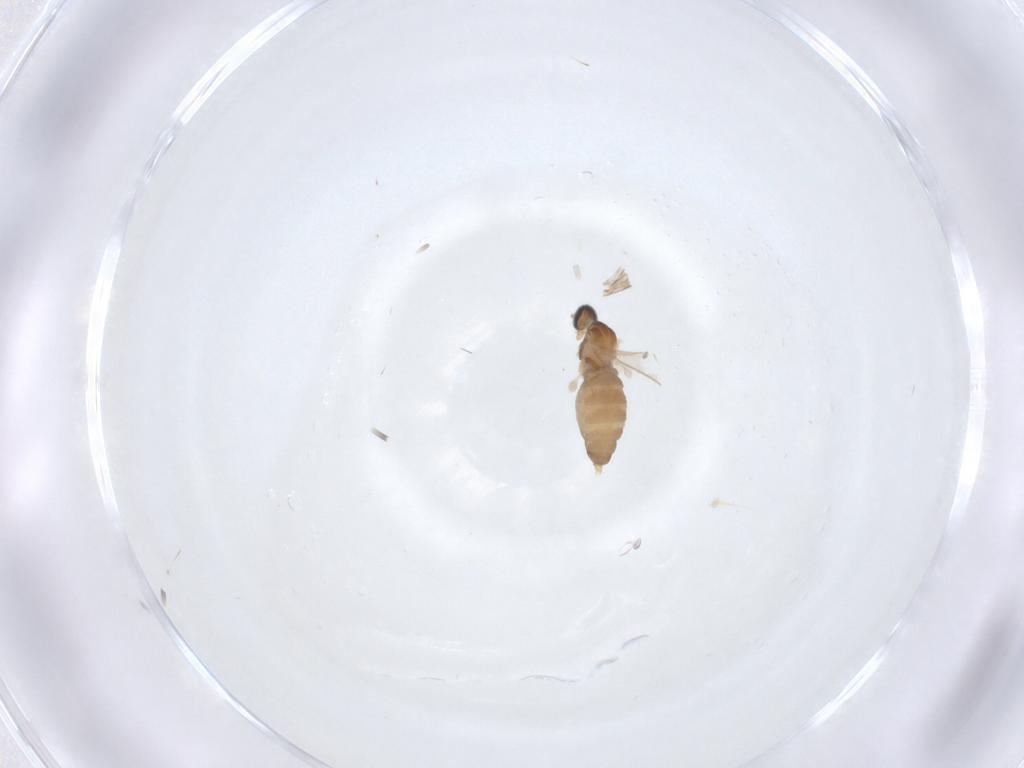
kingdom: Animalia
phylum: Arthropoda
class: Insecta
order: Diptera
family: Cecidomyiidae
